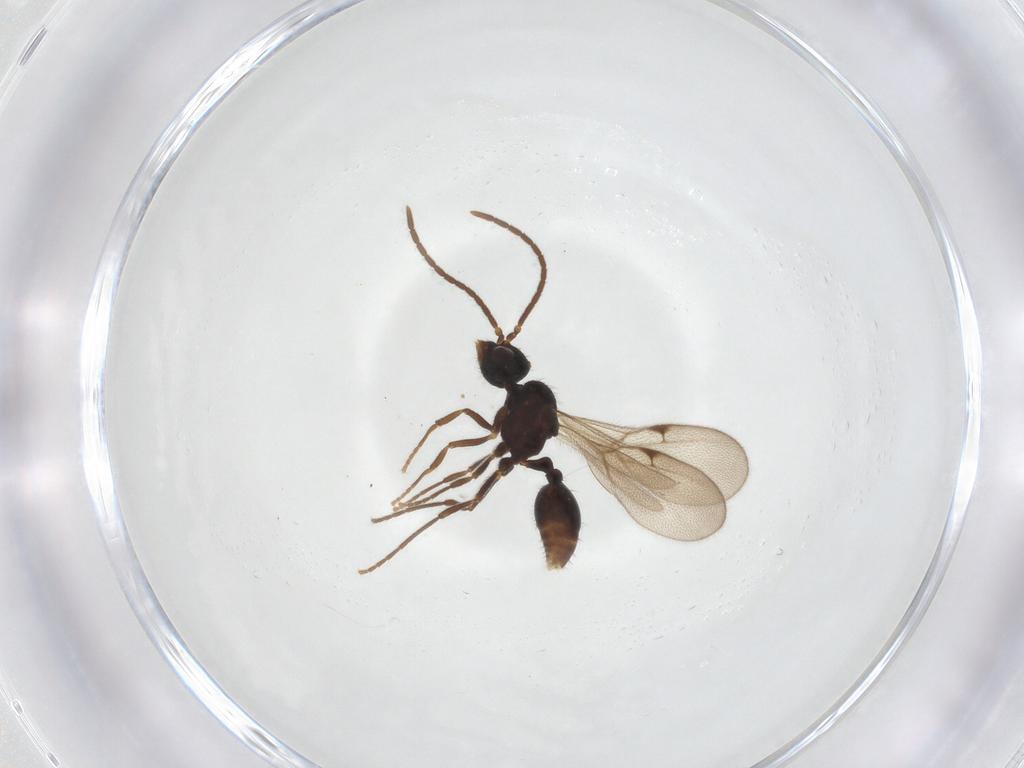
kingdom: Animalia
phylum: Arthropoda
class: Insecta
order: Hymenoptera
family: Formicidae
